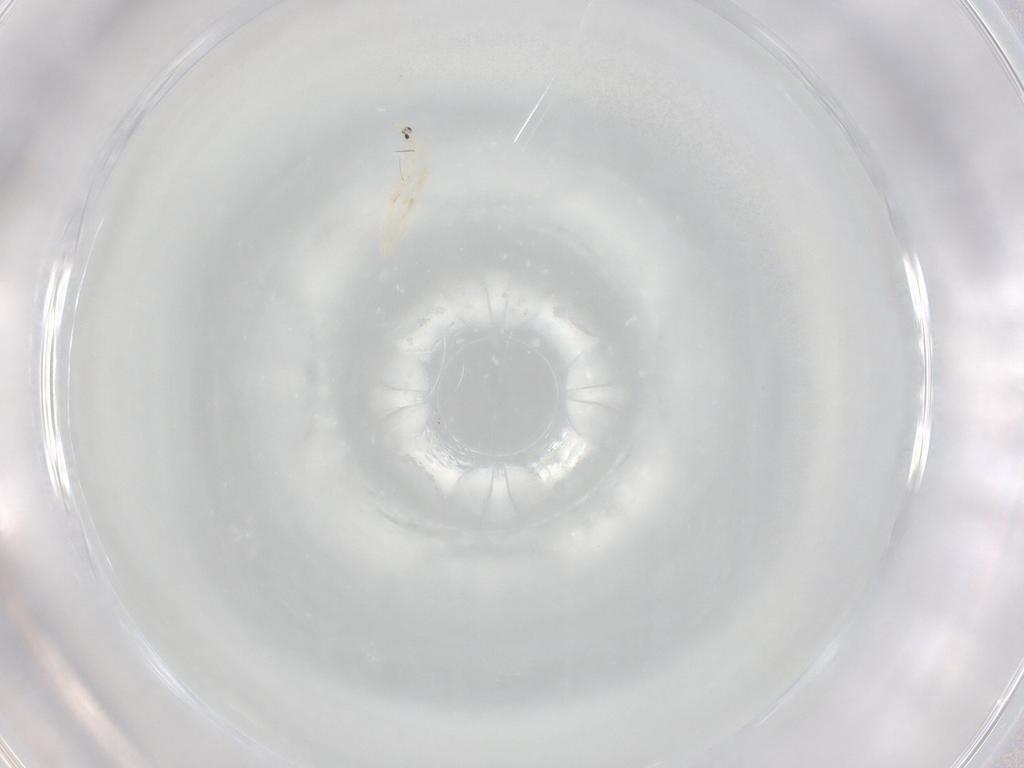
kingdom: Animalia
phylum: Arthropoda
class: Collembola
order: Entomobryomorpha
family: Entomobryidae
